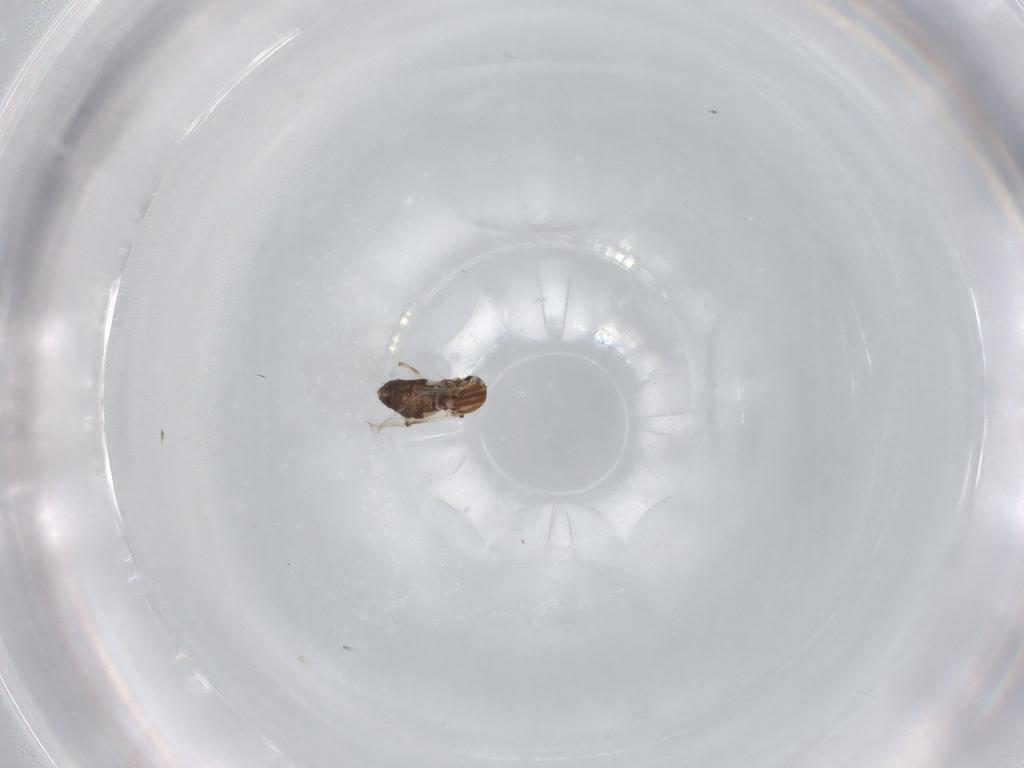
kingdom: Animalia
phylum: Arthropoda
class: Insecta
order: Diptera
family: Ceratopogonidae
